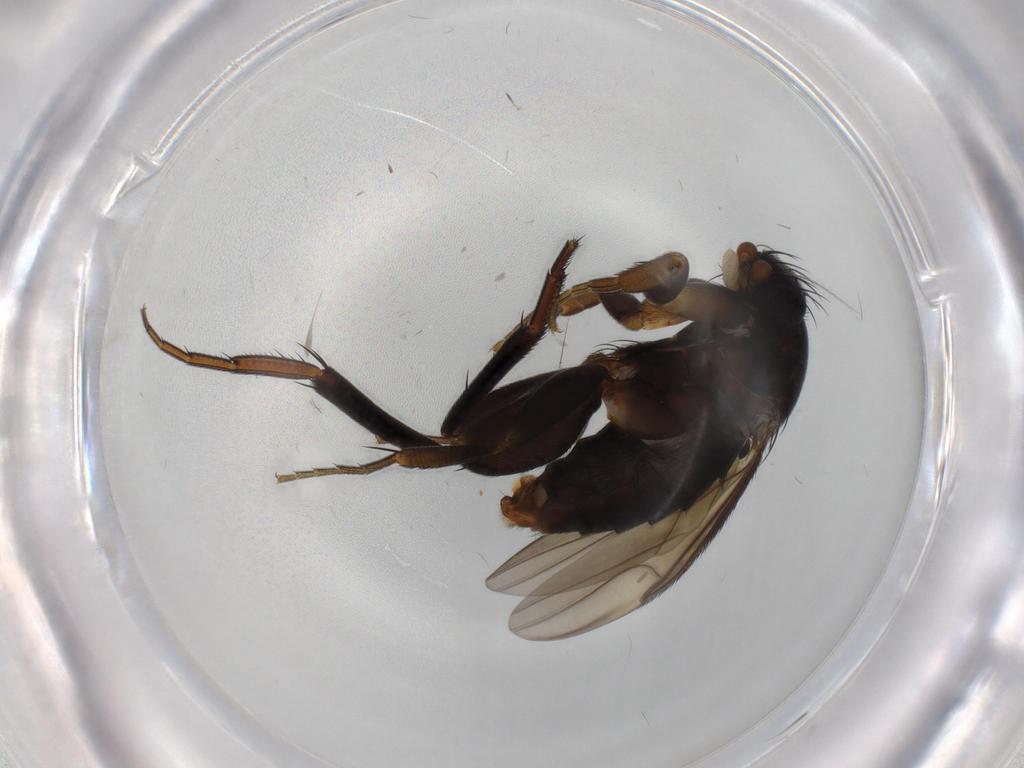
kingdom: Animalia
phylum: Arthropoda
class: Insecta
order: Diptera
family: Phoridae
